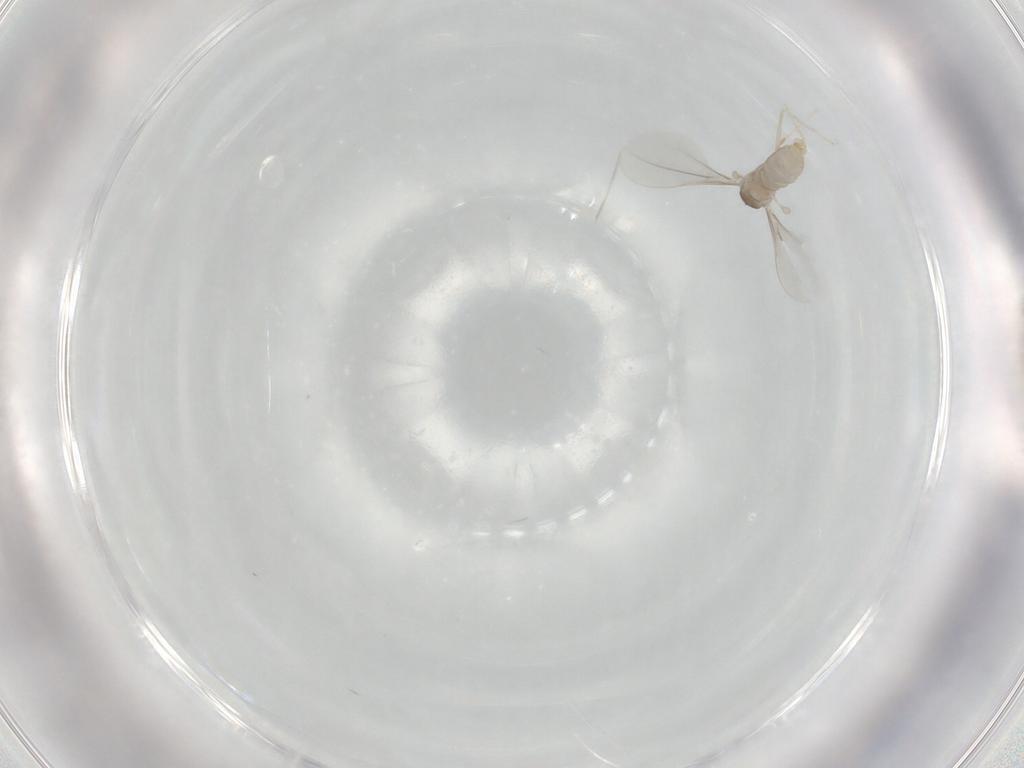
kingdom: Animalia
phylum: Arthropoda
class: Insecta
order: Diptera
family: Cecidomyiidae
